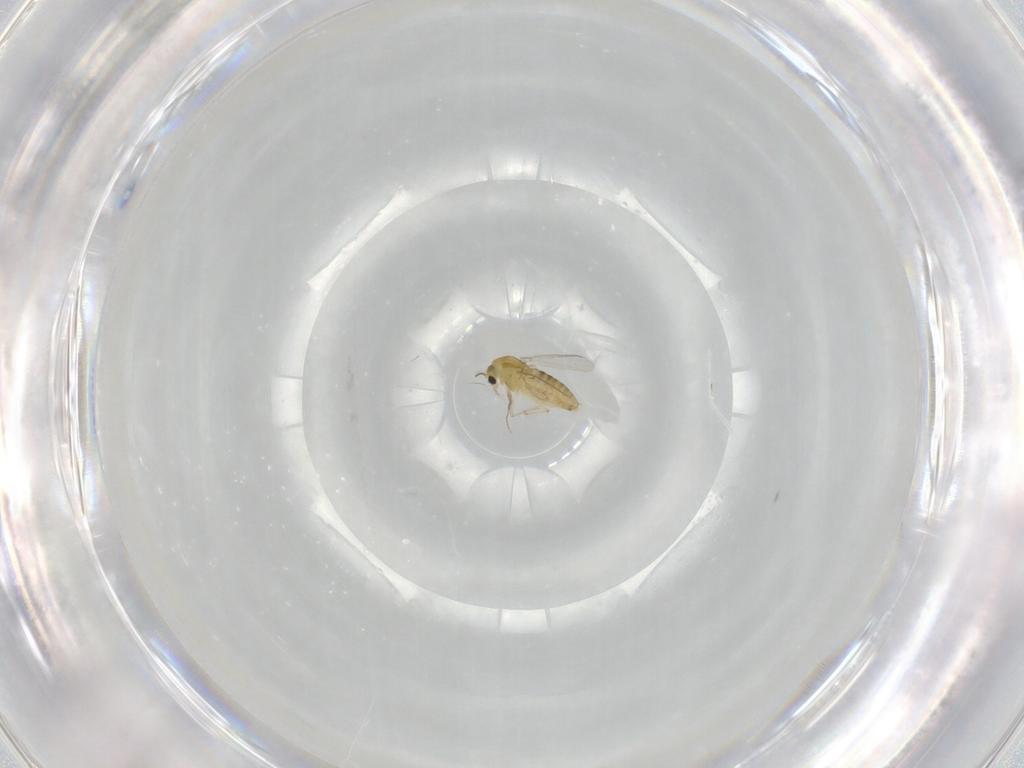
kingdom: Animalia
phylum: Arthropoda
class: Insecta
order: Diptera
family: Chironomidae
